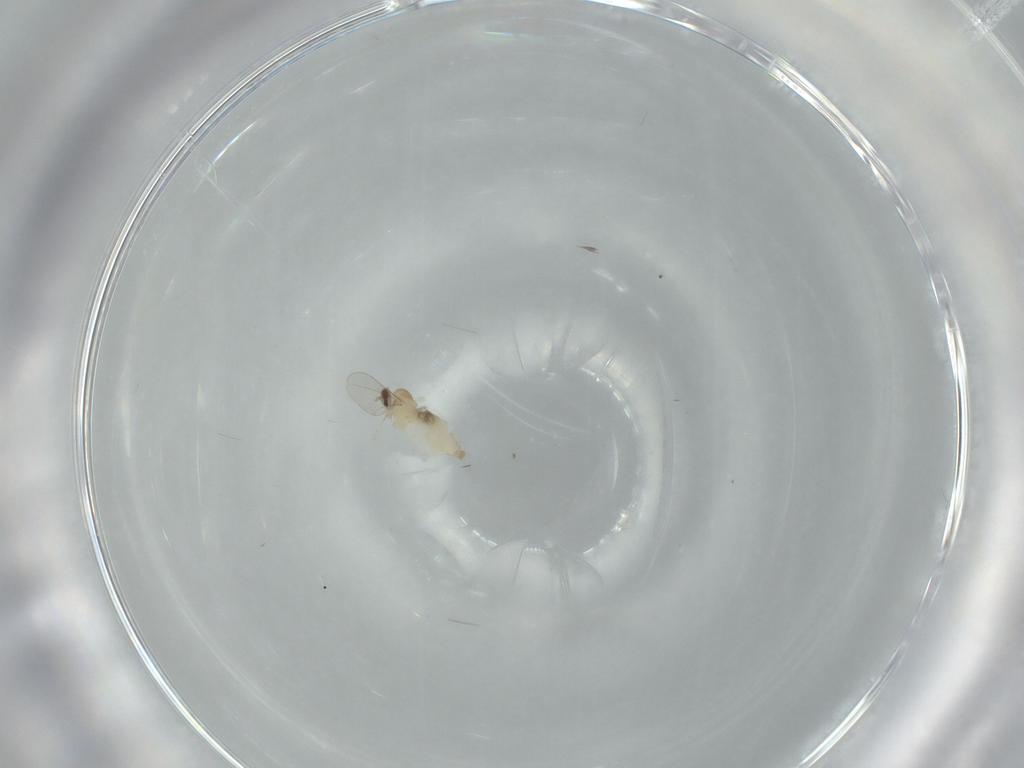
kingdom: Animalia
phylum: Arthropoda
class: Insecta
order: Diptera
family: Cecidomyiidae
